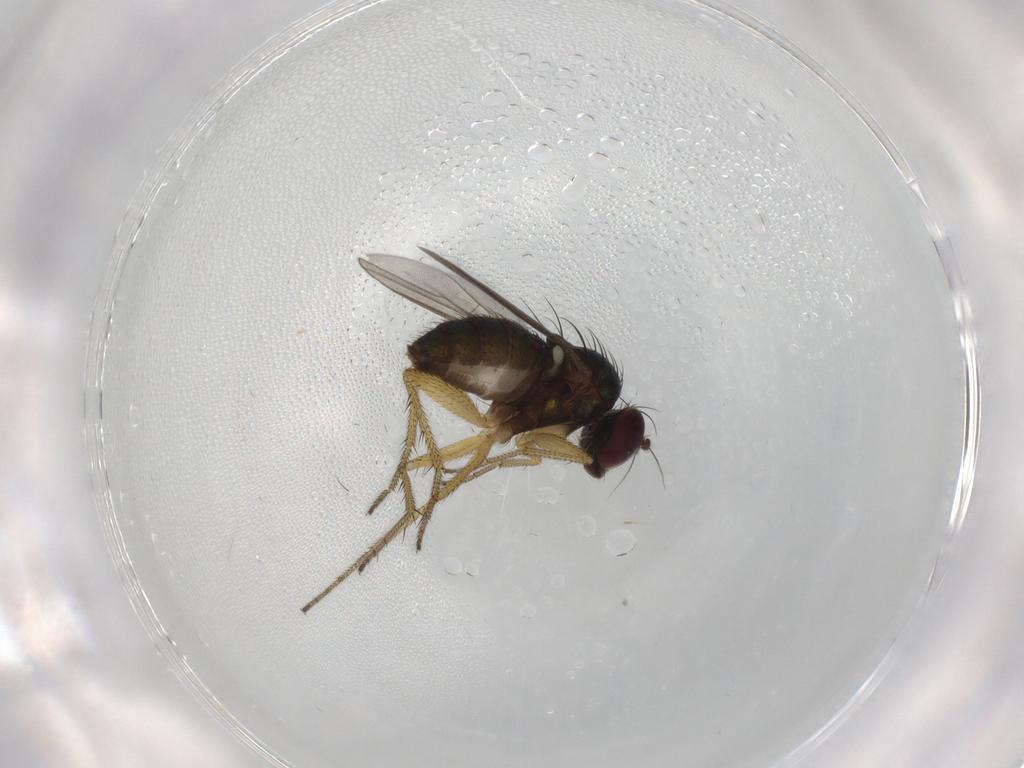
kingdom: Animalia
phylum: Arthropoda
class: Insecta
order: Diptera
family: Dolichopodidae
